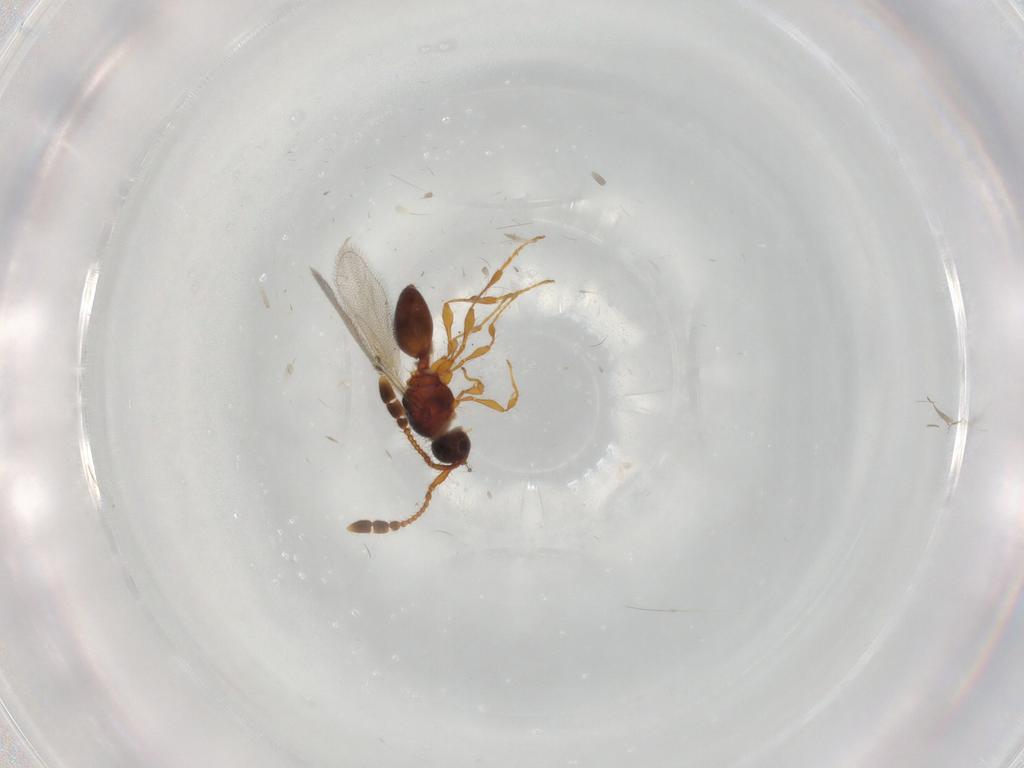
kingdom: Animalia
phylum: Arthropoda
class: Insecta
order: Hymenoptera
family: Diapriidae
